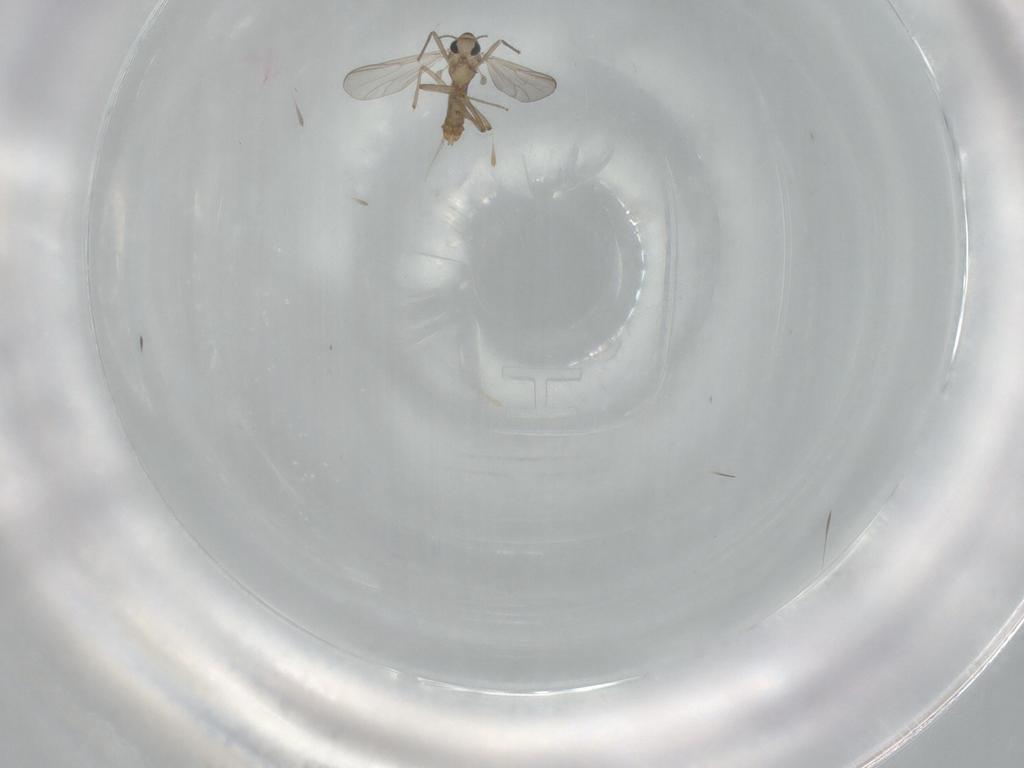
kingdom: Animalia
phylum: Arthropoda
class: Insecta
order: Diptera
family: Chironomidae
